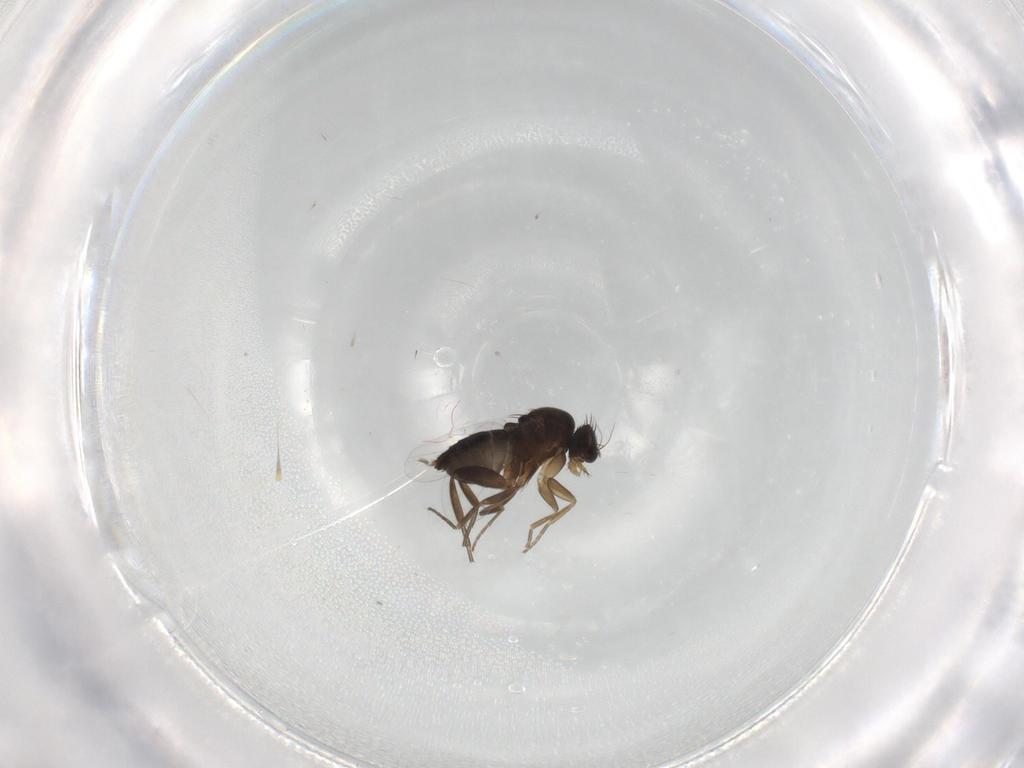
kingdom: Animalia
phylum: Arthropoda
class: Insecta
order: Diptera
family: Phoridae
